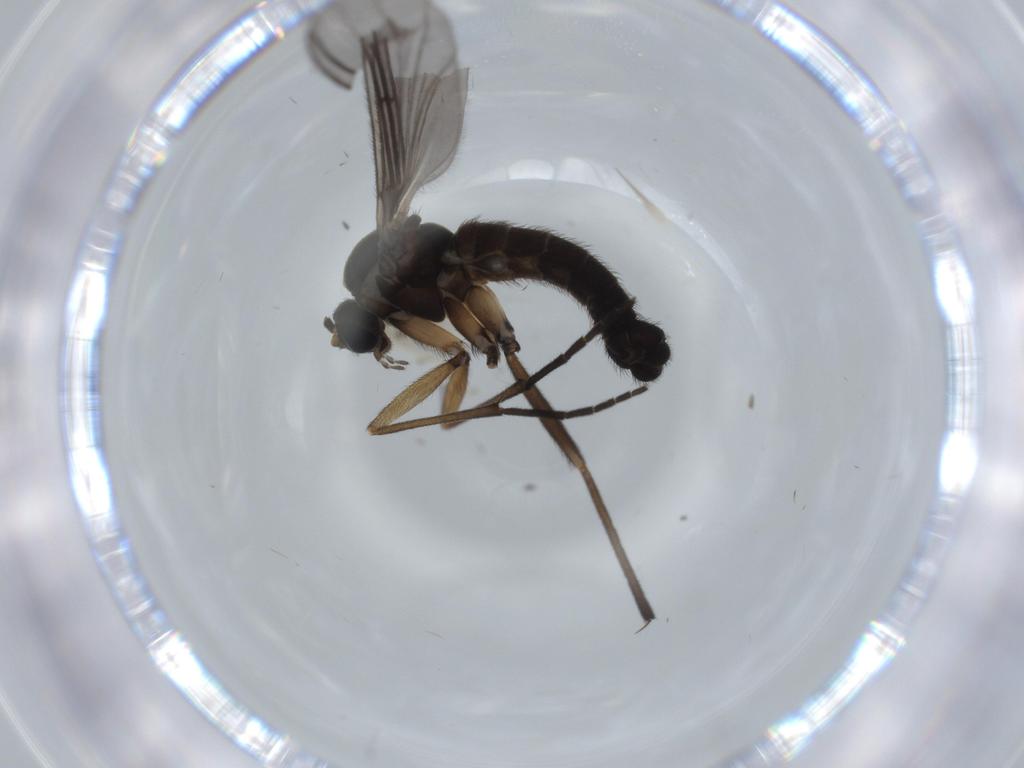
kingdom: Animalia
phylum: Arthropoda
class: Insecta
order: Diptera
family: Sciaridae
